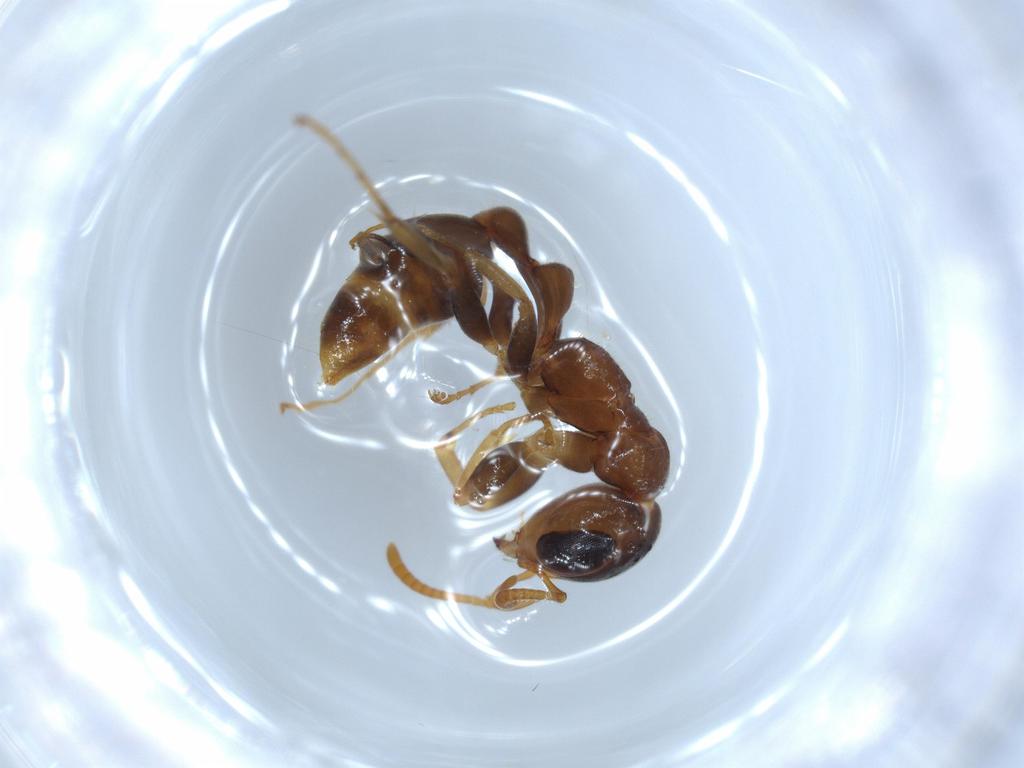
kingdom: Animalia
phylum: Arthropoda
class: Insecta
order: Hymenoptera
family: Formicidae
